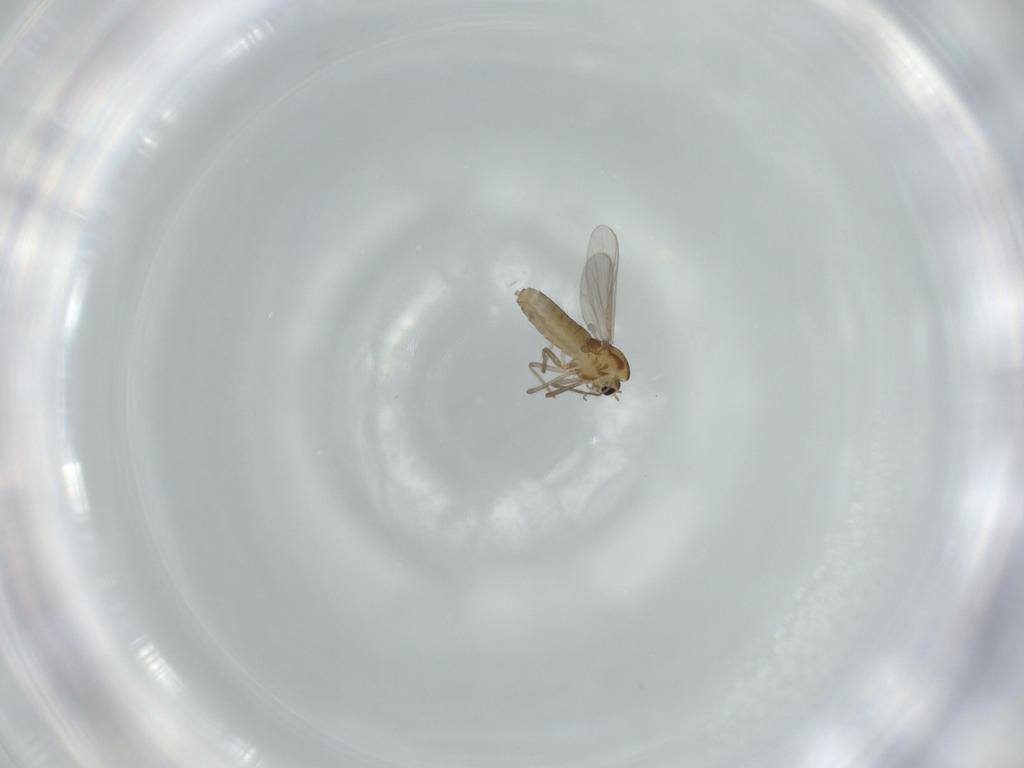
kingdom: Animalia
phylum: Arthropoda
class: Insecta
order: Diptera
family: Chironomidae
